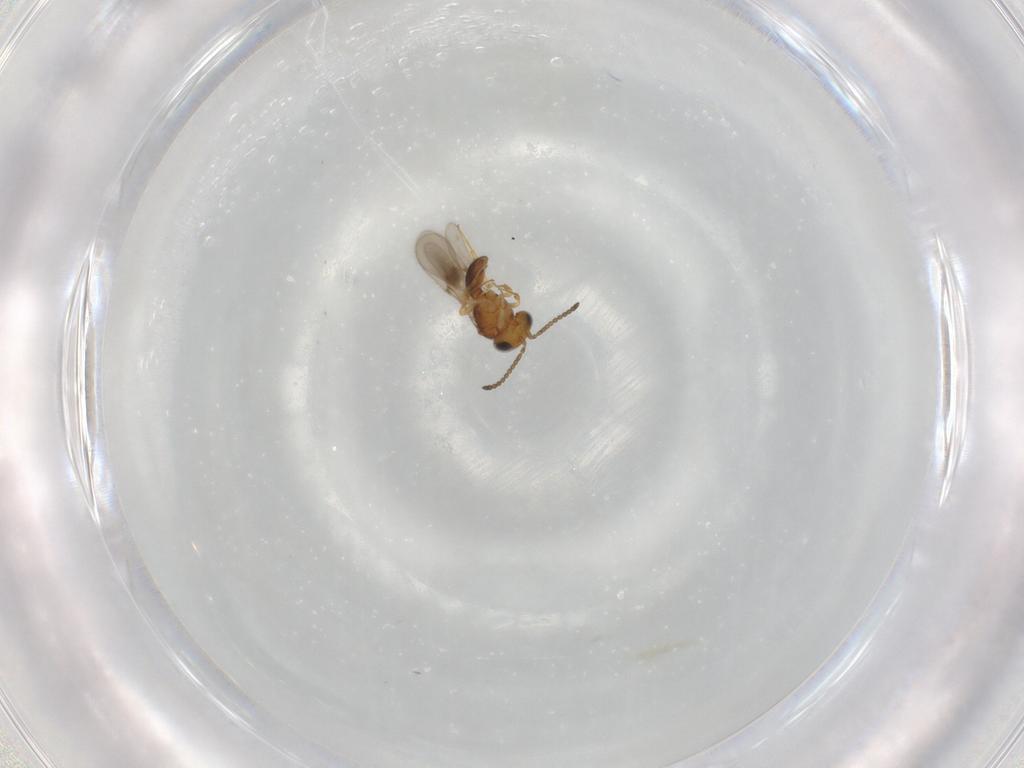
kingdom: Animalia
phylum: Arthropoda
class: Insecta
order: Hymenoptera
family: Scelionidae
